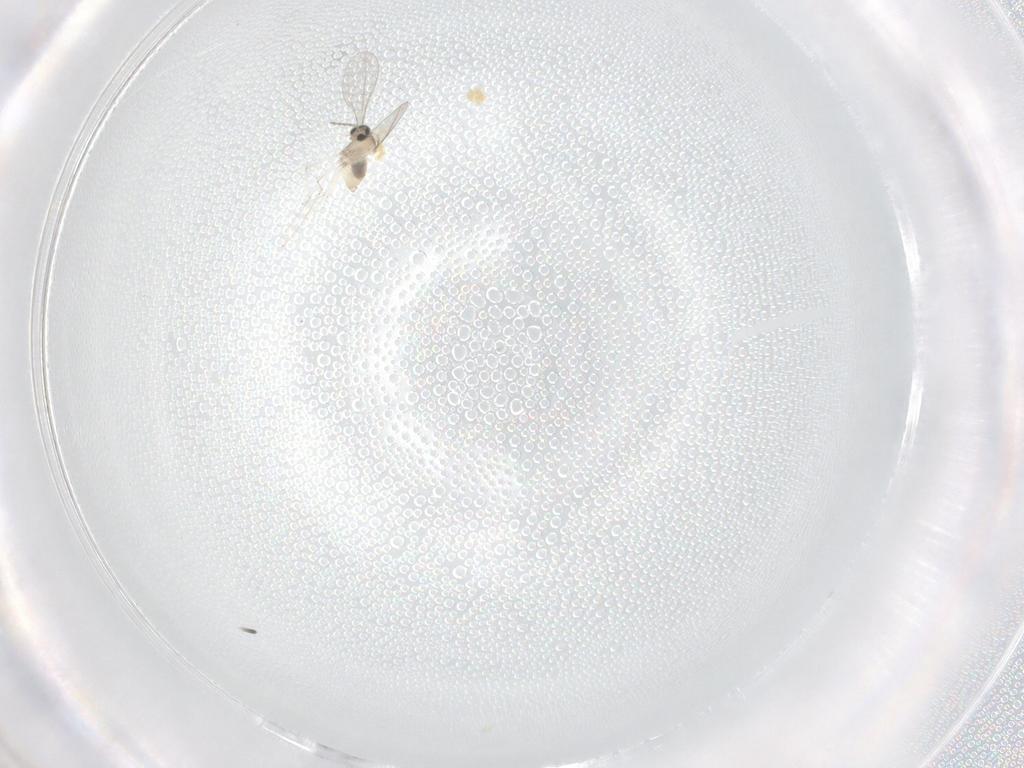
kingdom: Animalia
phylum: Arthropoda
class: Insecta
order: Diptera
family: Cecidomyiidae
